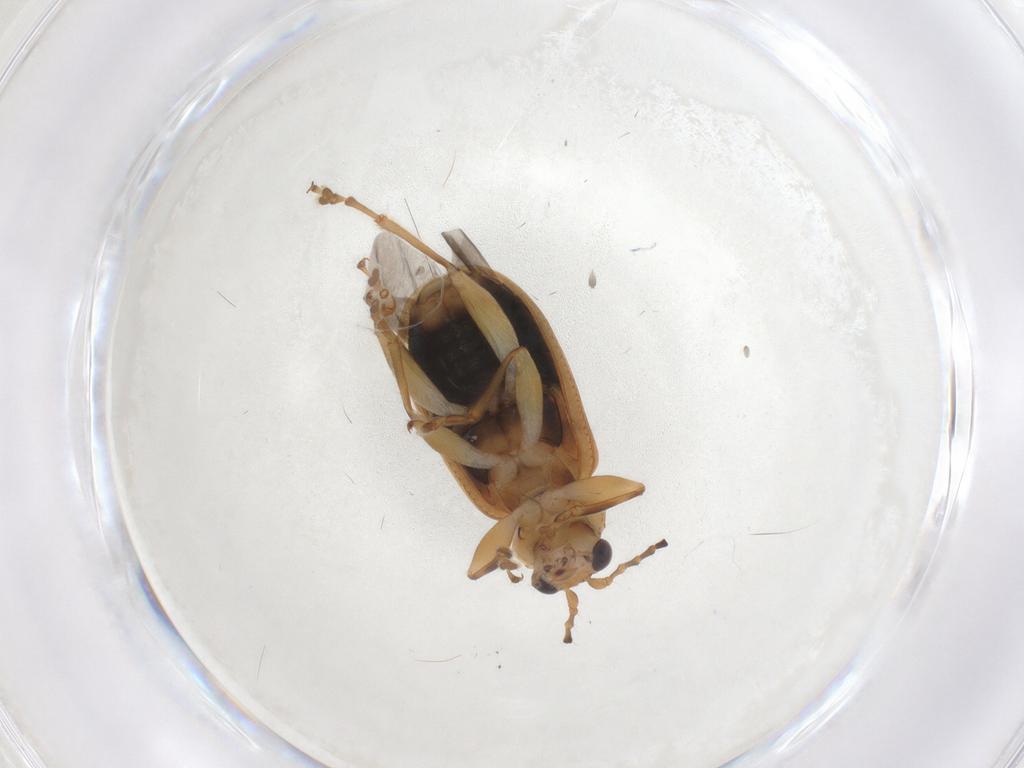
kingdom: Animalia
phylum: Arthropoda
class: Insecta
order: Coleoptera
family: Chrysomelidae
